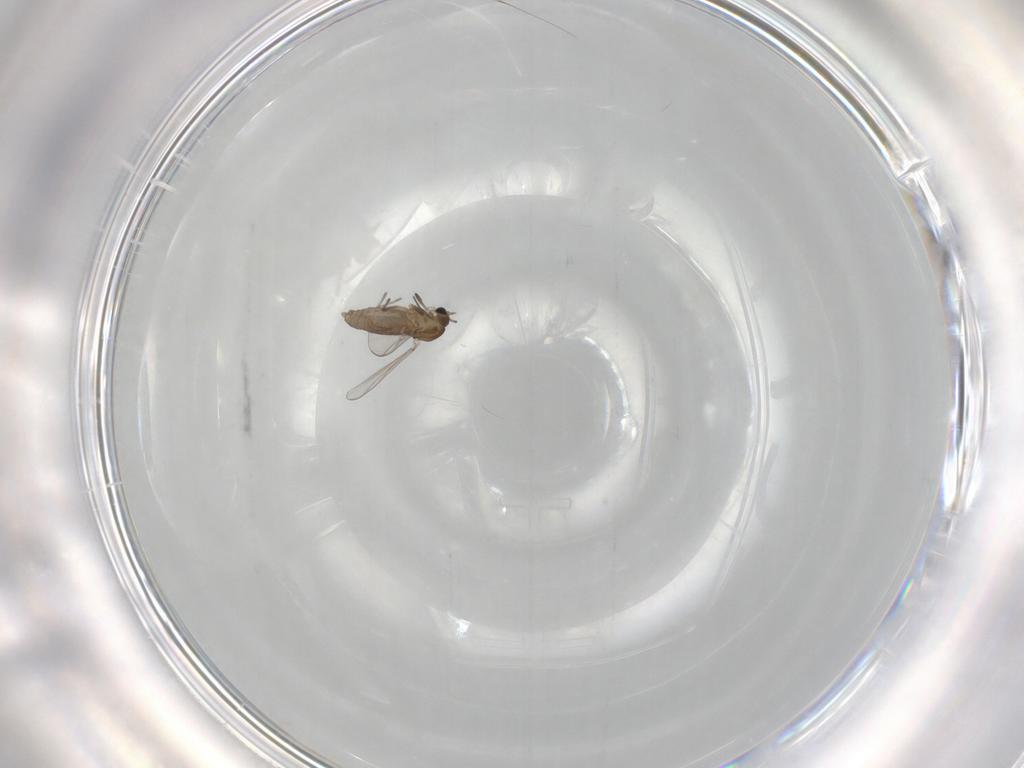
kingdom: Animalia
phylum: Arthropoda
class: Insecta
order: Diptera
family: Chironomidae
